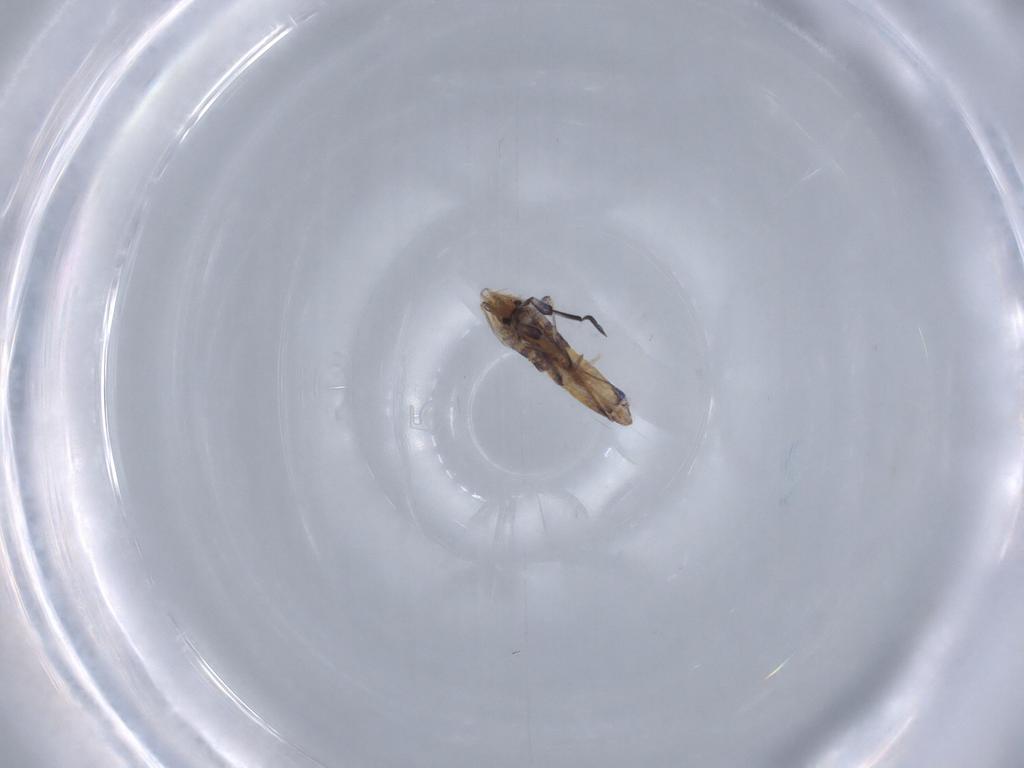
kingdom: Animalia
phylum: Arthropoda
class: Collembola
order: Poduromorpha
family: Hypogastruridae
